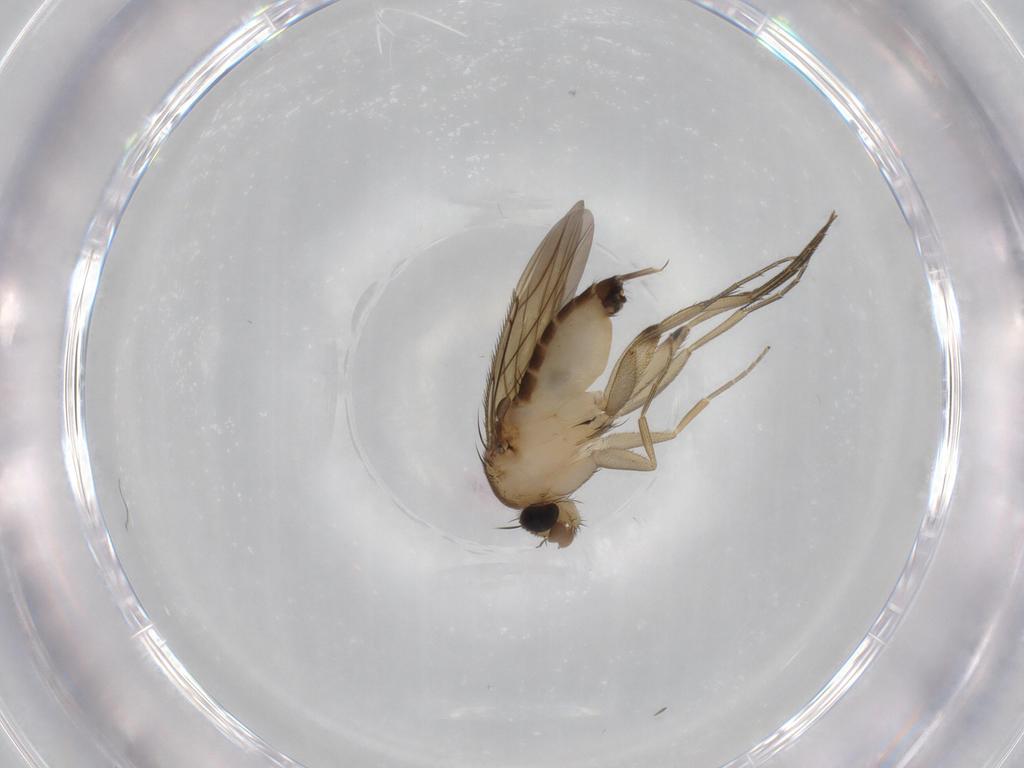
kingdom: Animalia
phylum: Arthropoda
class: Insecta
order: Diptera
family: Phoridae
